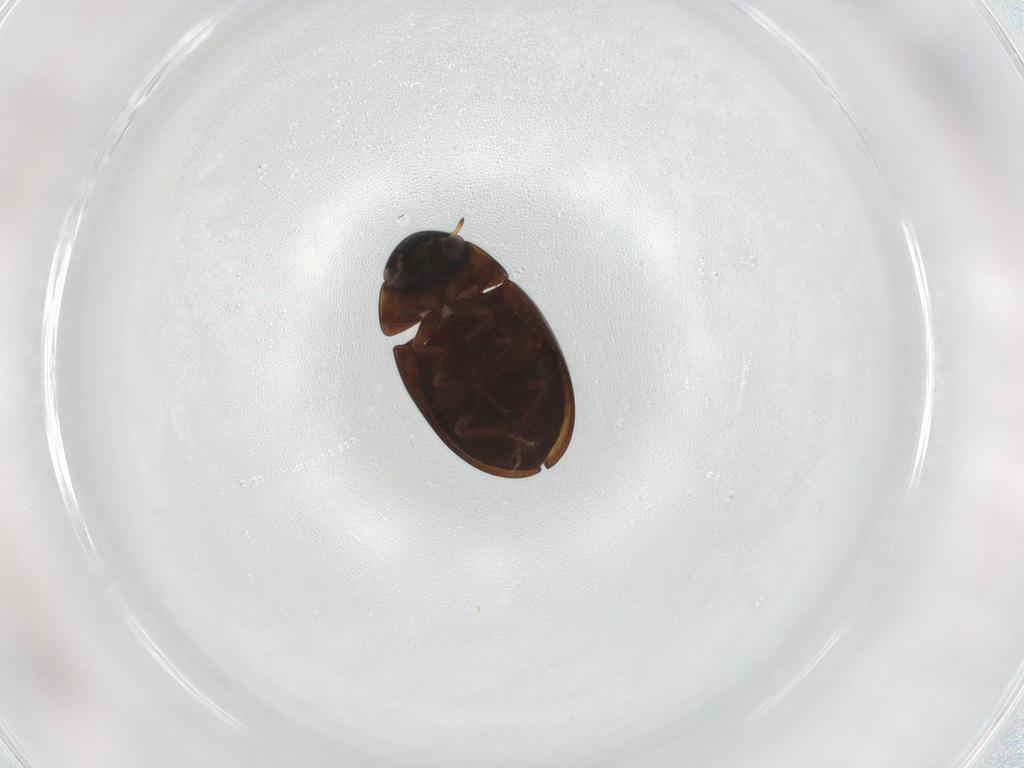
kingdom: Animalia
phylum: Arthropoda
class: Insecta
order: Coleoptera
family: Hydrophilidae
